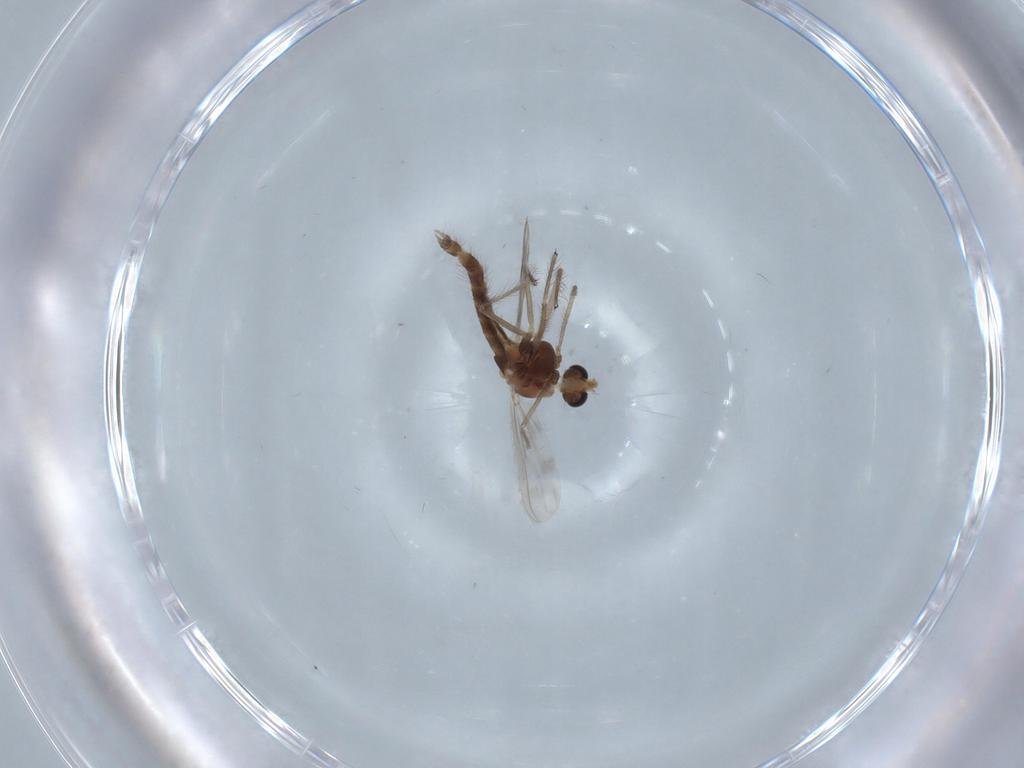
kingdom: Animalia
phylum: Arthropoda
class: Insecta
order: Diptera
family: Chironomidae
